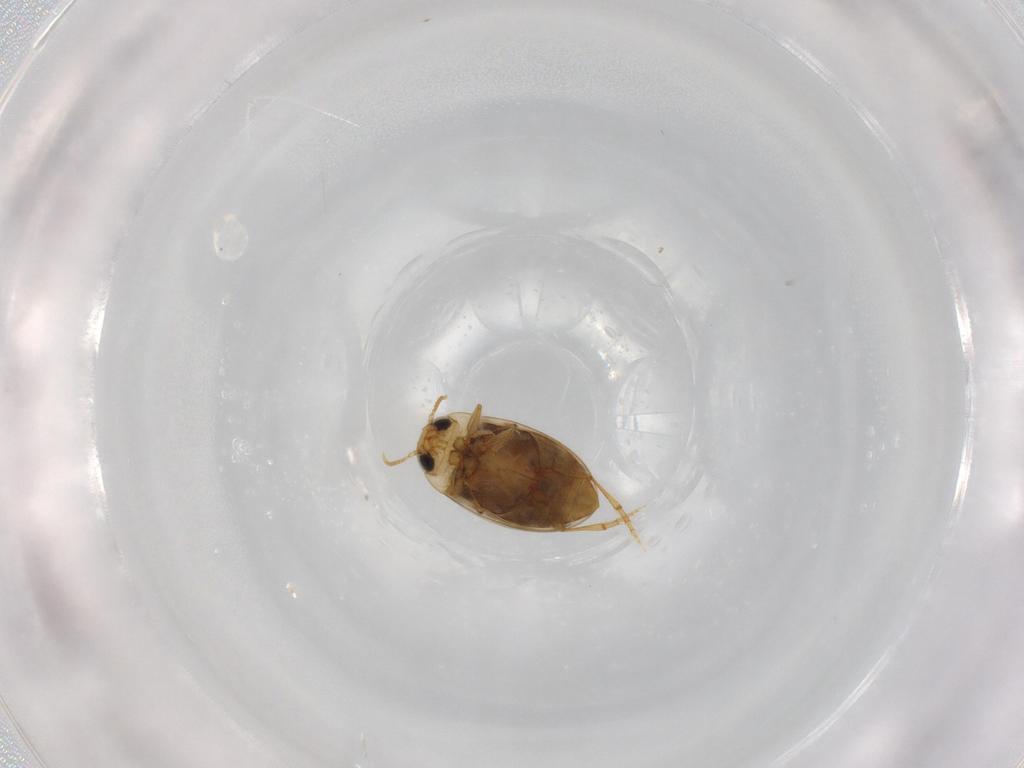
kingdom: Animalia
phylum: Arthropoda
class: Insecta
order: Coleoptera
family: Dytiscidae
